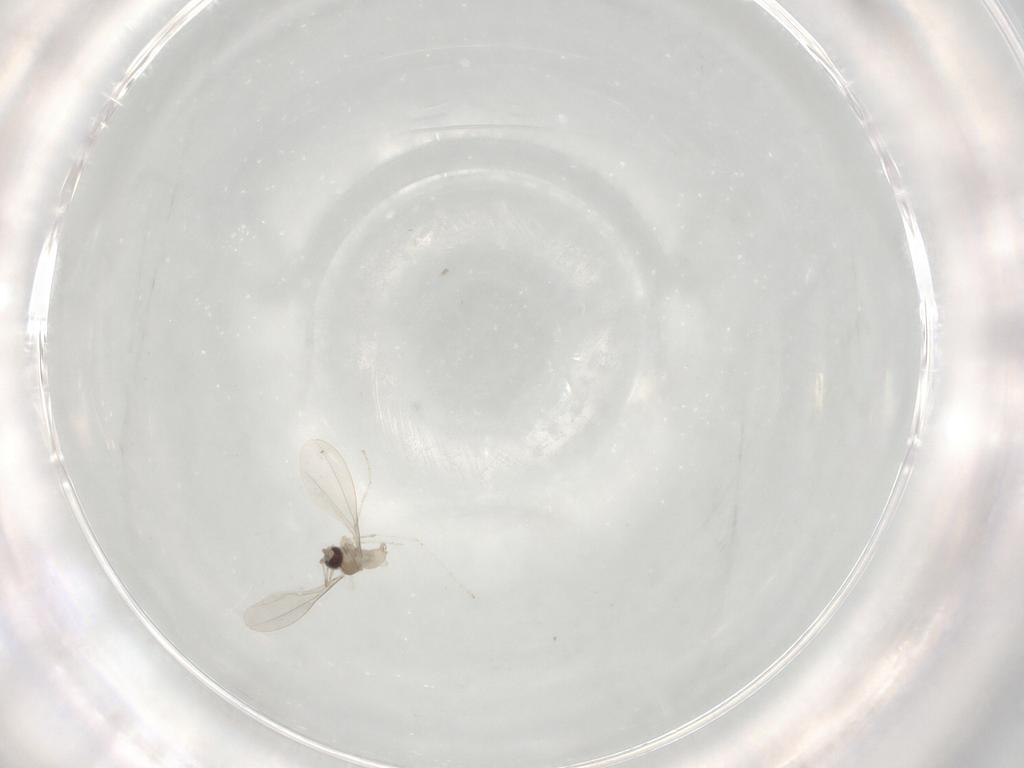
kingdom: Animalia
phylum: Arthropoda
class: Insecta
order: Diptera
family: Cecidomyiidae
